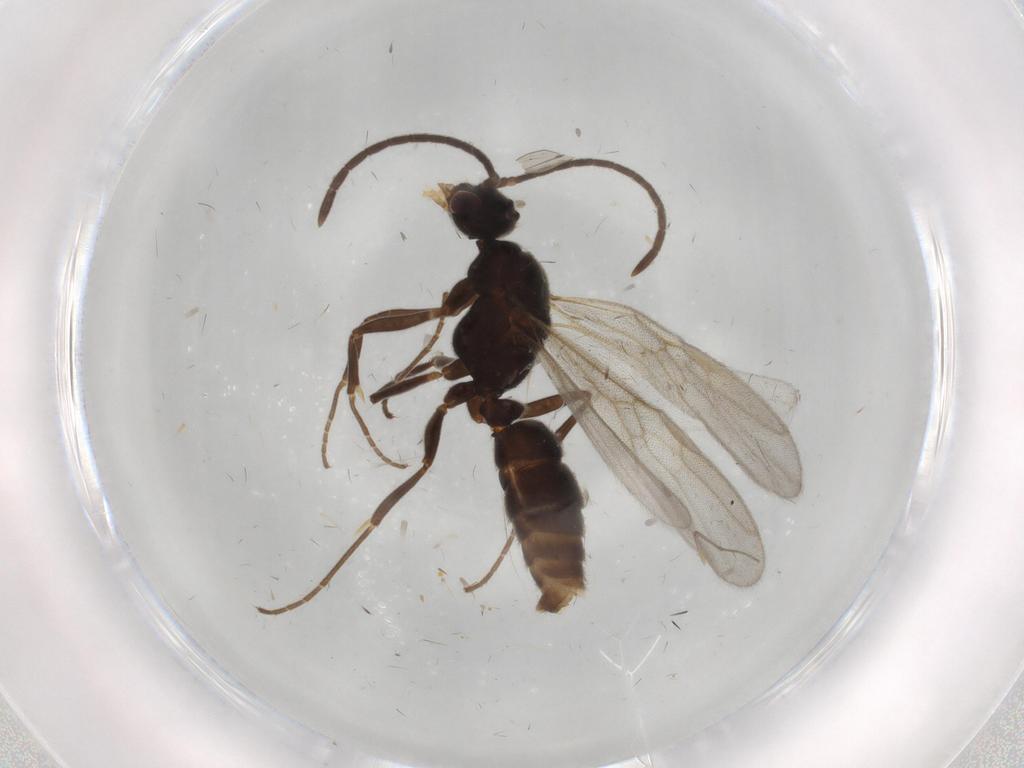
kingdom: Animalia
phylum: Arthropoda
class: Insecta
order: Hymenoptera
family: Formicidae
